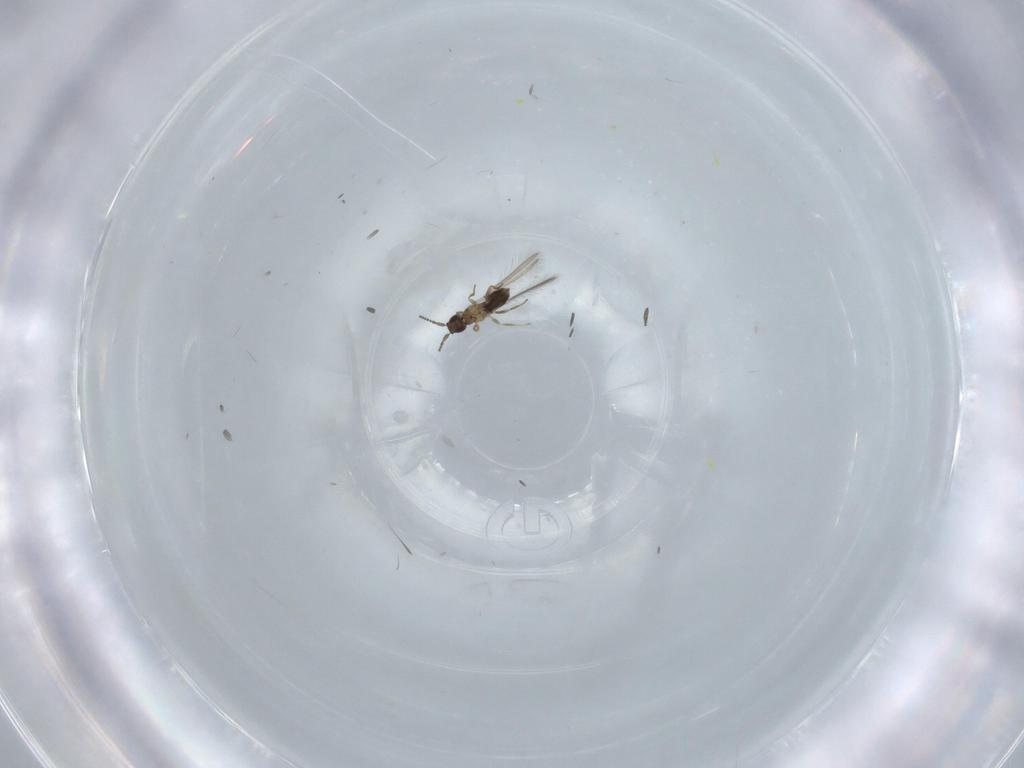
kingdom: Animalia
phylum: Arthropoda
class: Insecta
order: Hymenoptera
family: Mymaridae
